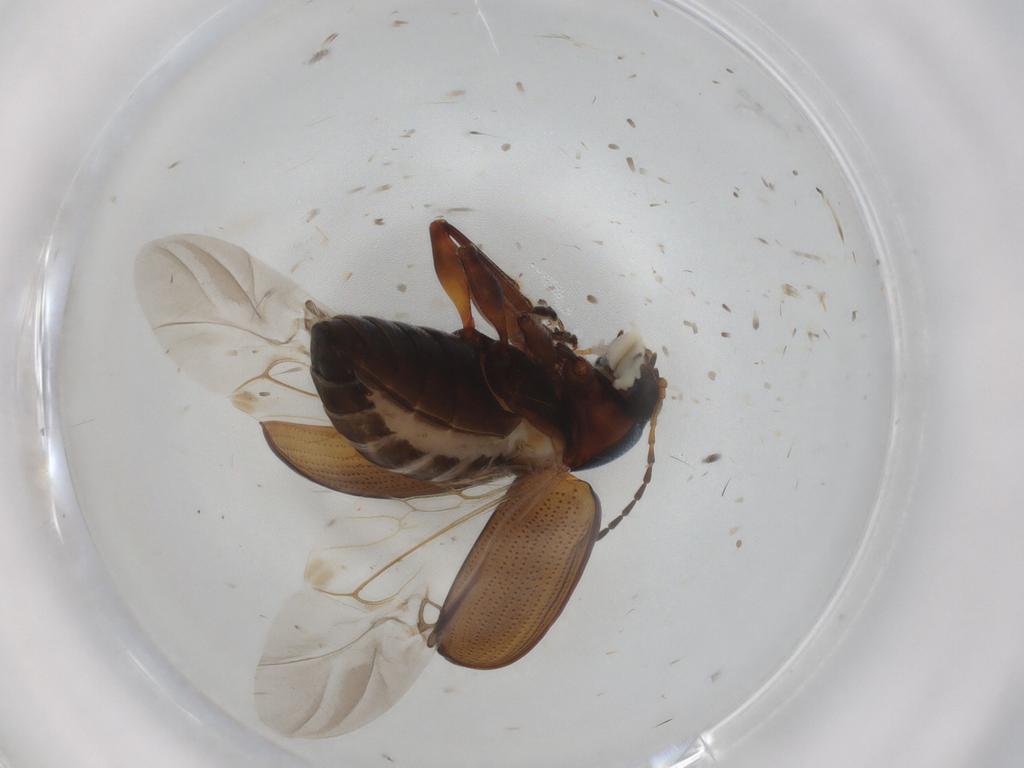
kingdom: Animalia
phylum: Arthropoda
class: Insecta
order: Coleoptera
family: Chrysomelidae
